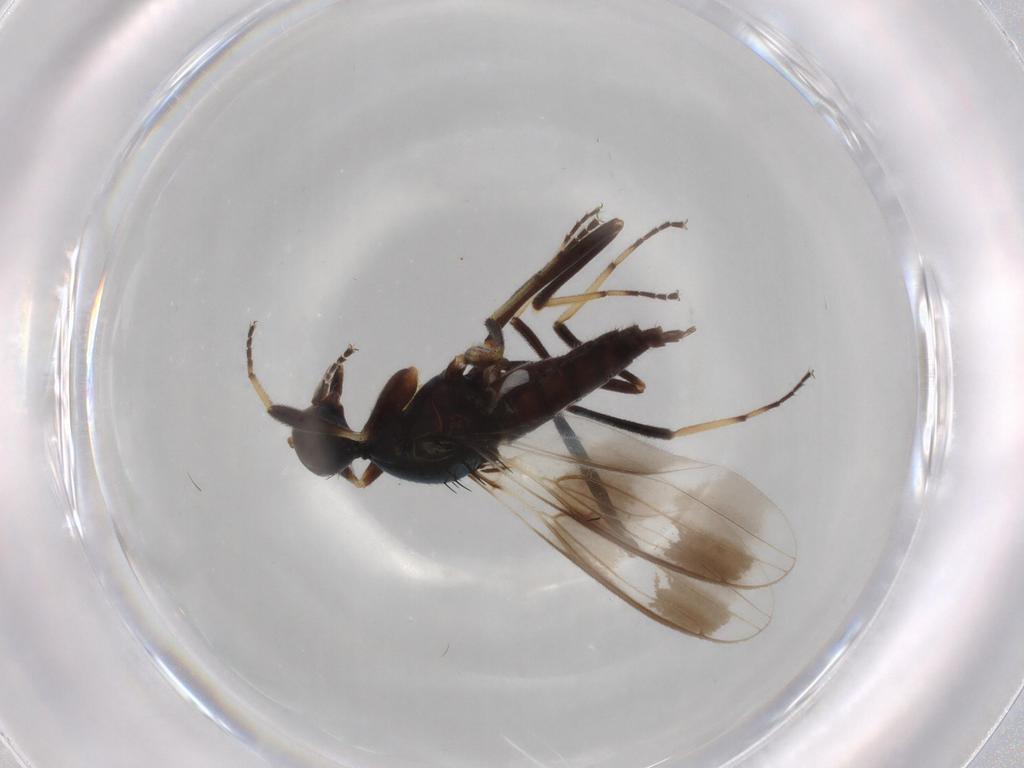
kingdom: Animalia
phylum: Arthropoda
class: Insecta
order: Diptera
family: Hybotidae
